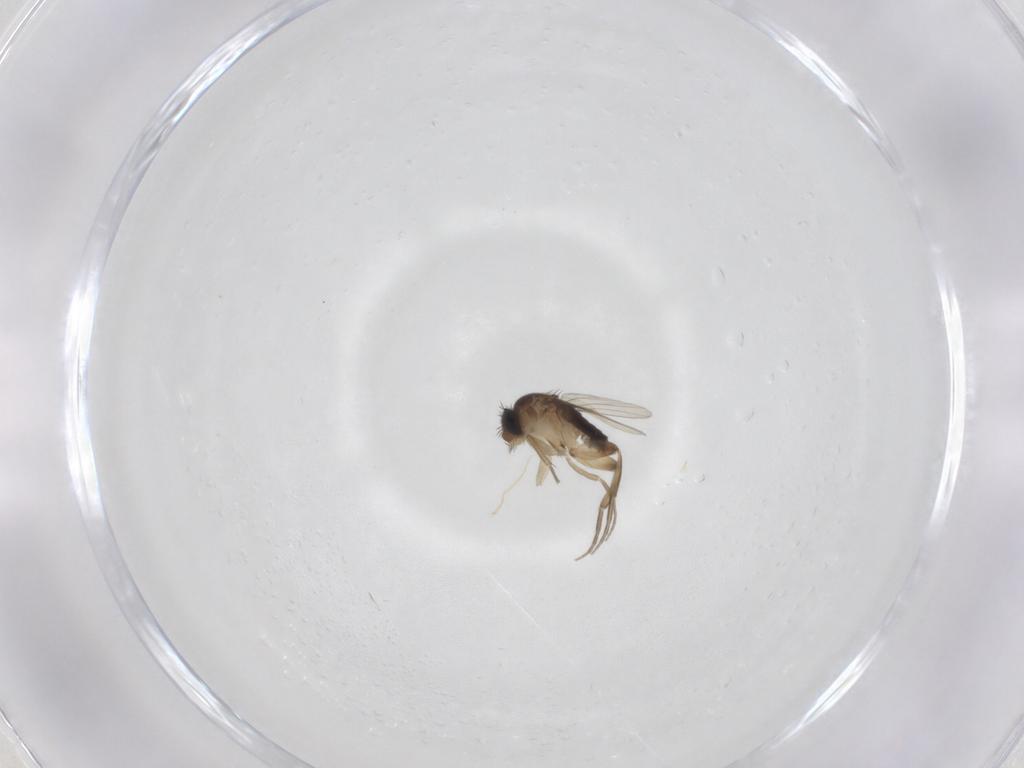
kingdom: Animalia
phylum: Arthropoda
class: Insecta
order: Diptera
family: Phoridae
